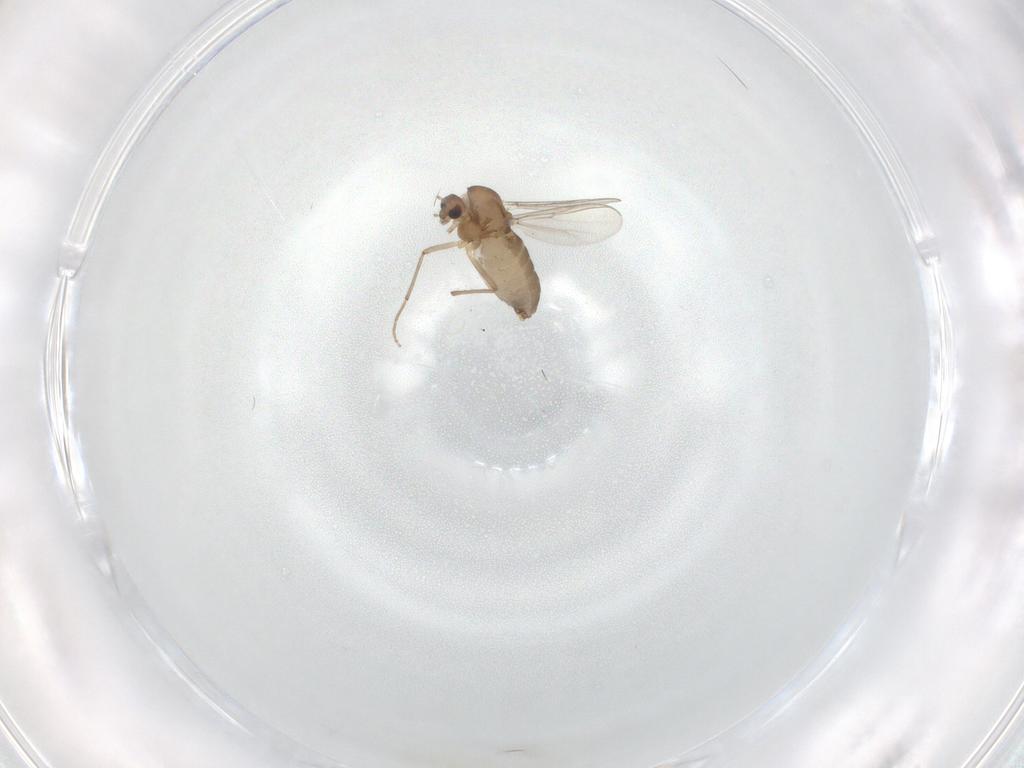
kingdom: Animalia
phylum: Arthropoda
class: Insecta
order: Diptera
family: Chironomidae
